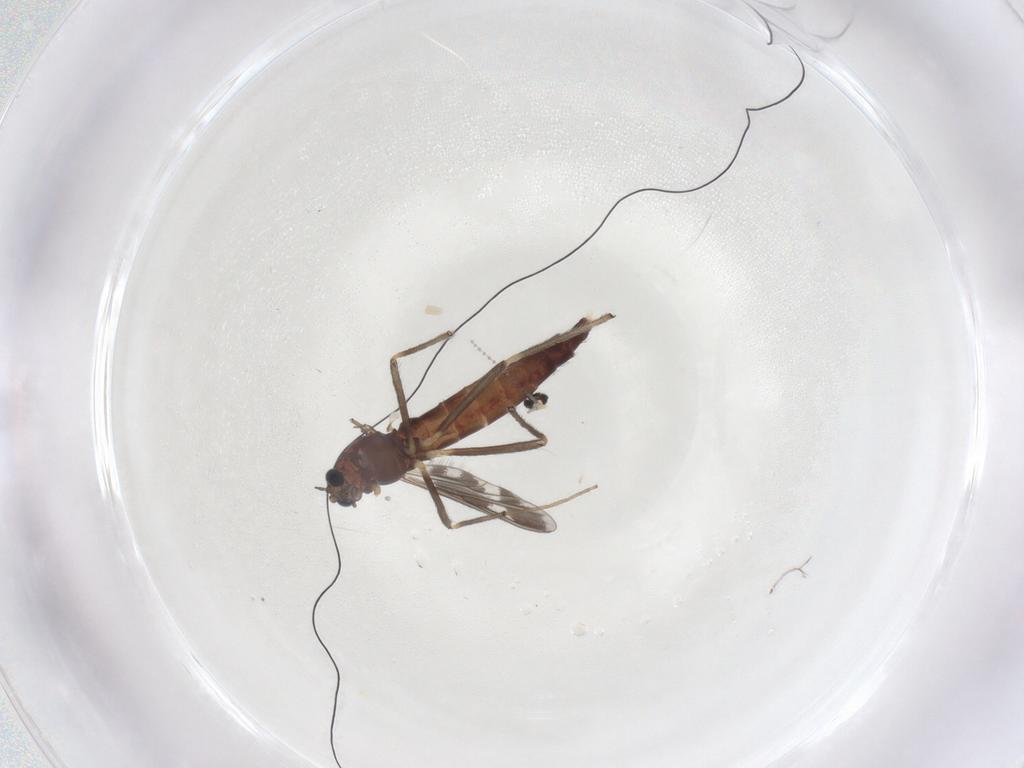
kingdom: Animalia
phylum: Arthropoda
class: Insecta
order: Diptera
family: Chironomidae
